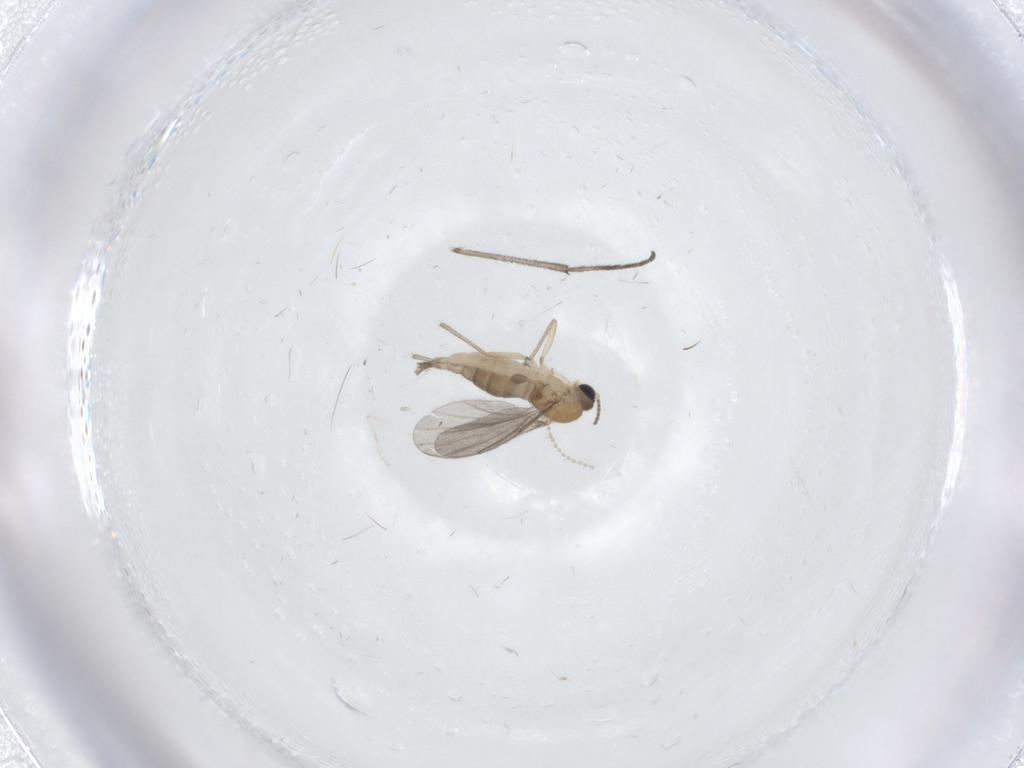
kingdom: Animalia
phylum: Arthropoda
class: Insecta
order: Diptera
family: Sciaridae
